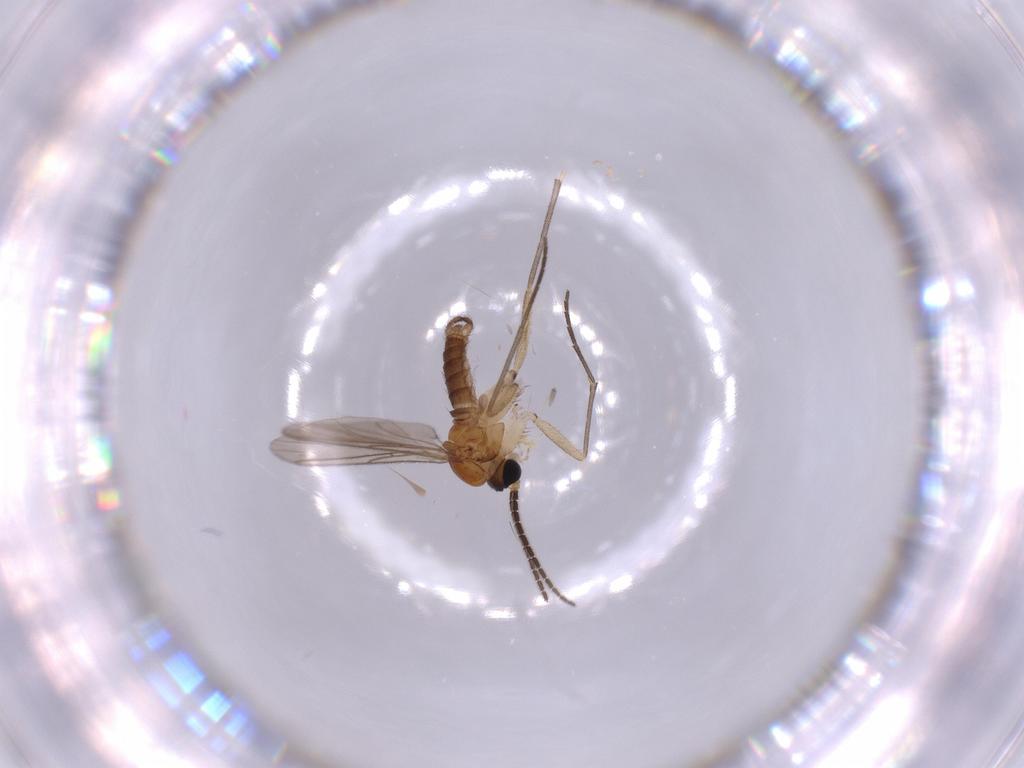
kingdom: Animalia
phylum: Arthropoda
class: Insecta
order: Diptera
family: Sciaridae
